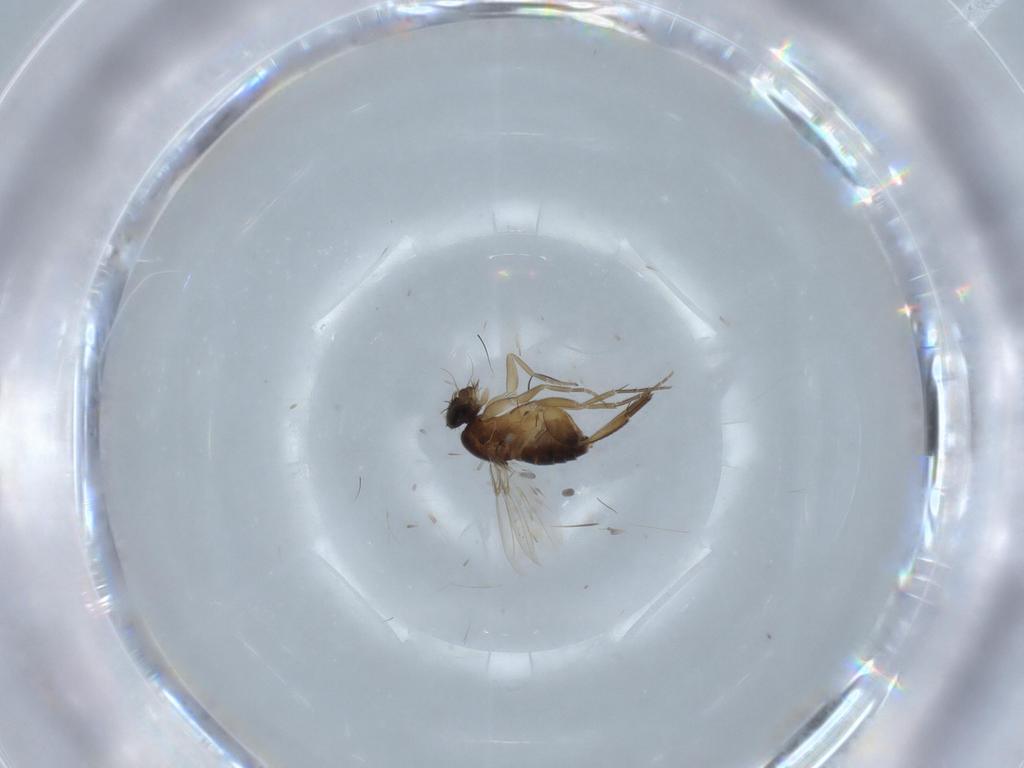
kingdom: Animalia
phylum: Arthropoda
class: Insecta
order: Diptera
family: Phoridae
